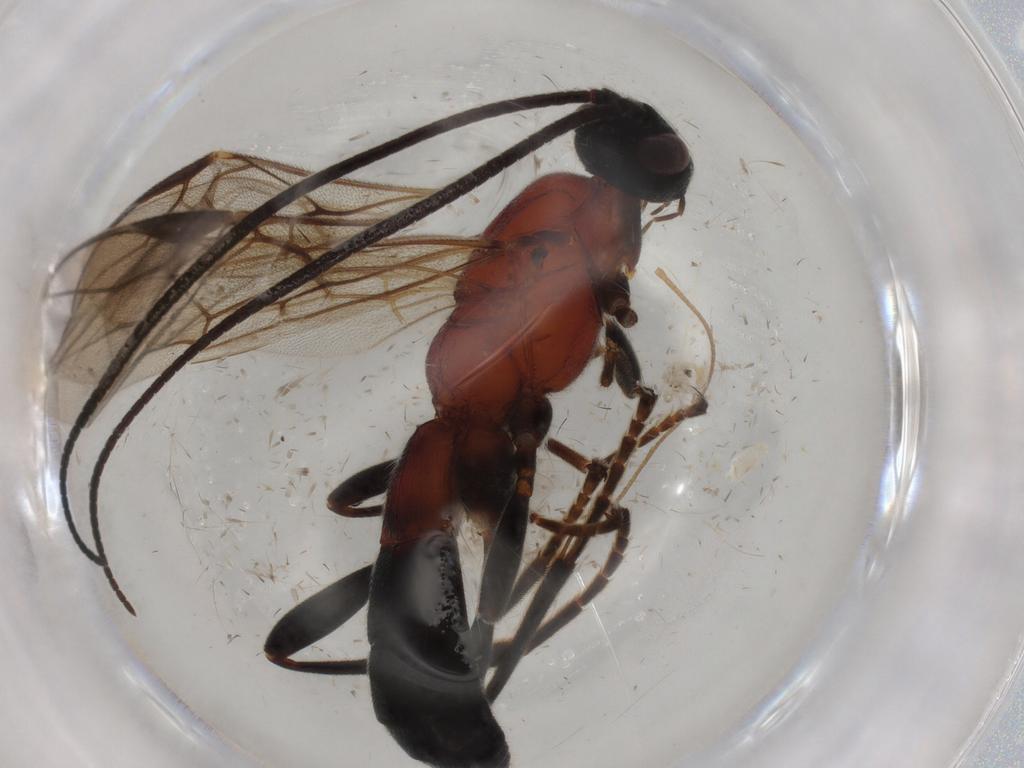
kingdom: Animalia
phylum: Arthropoda
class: Insecta
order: Hymenoptera
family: Braconidae
